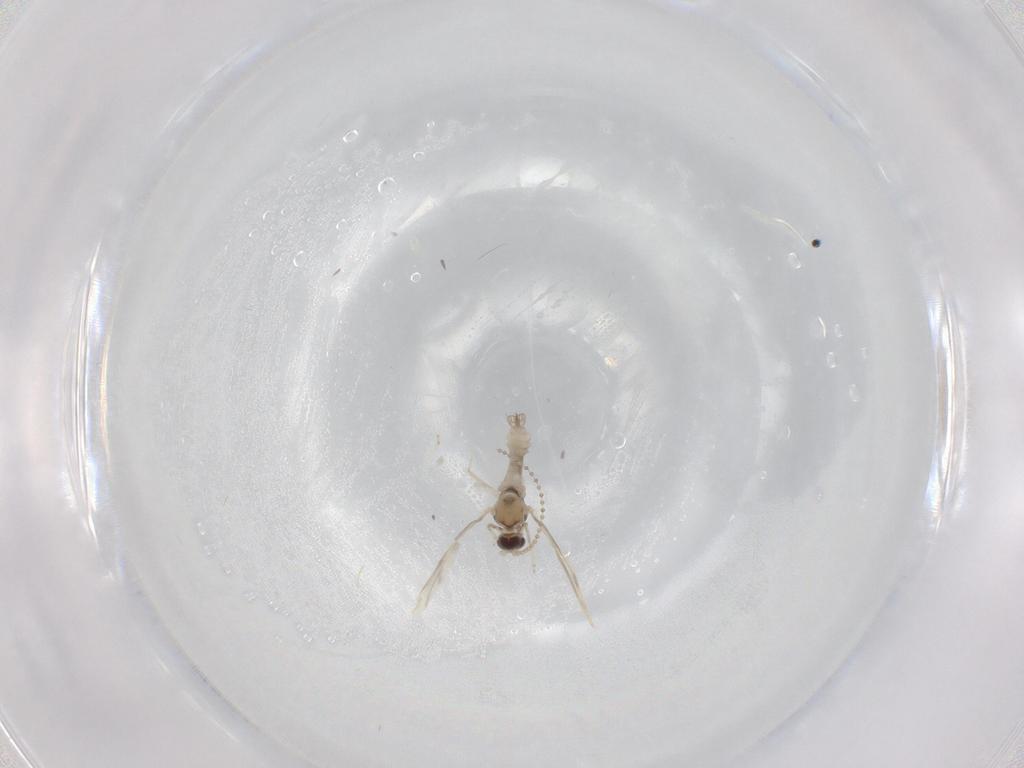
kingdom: Animalia
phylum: Arthropoda
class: Insecta
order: Diptera
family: Cecidomyiidae
